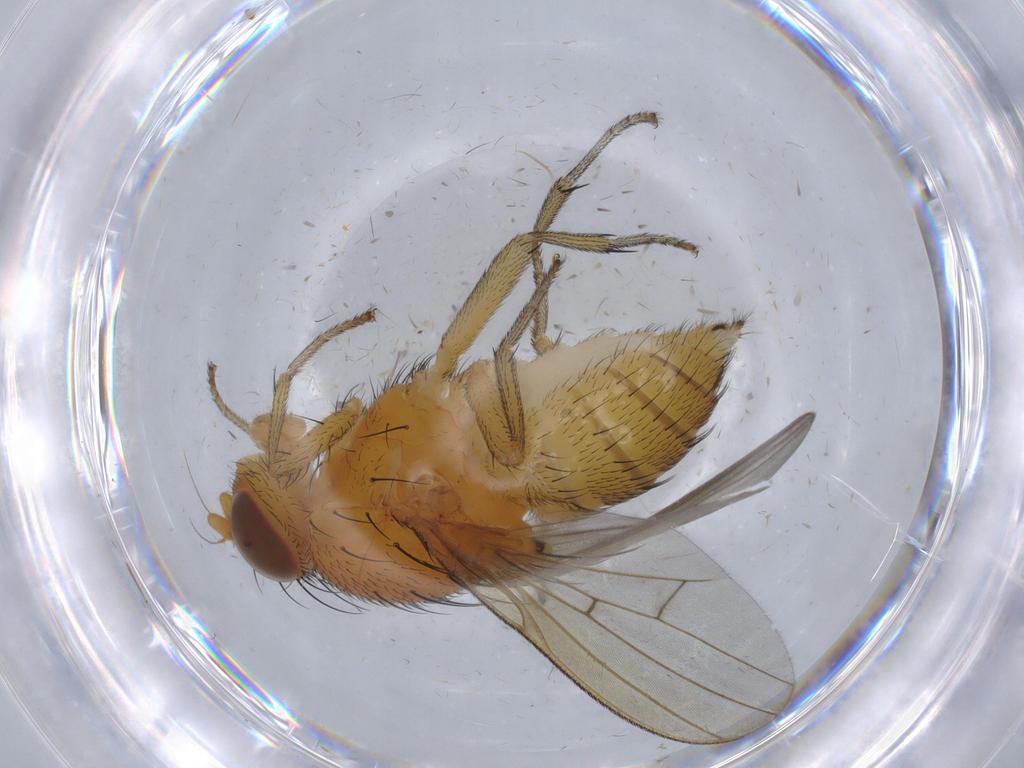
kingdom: Animalia
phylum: Arthropoda
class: Insecta
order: Diptera
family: Chironomidae
